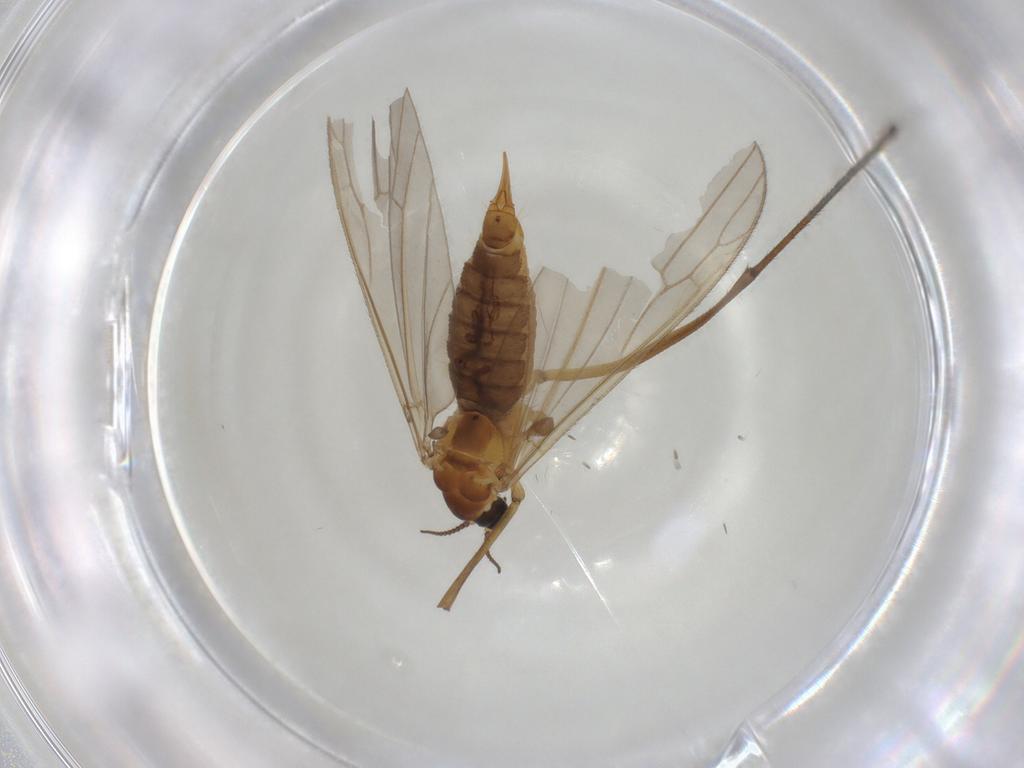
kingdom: Animalia
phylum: Arthropoda
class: Insecta
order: Diptera
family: Limoniidae
